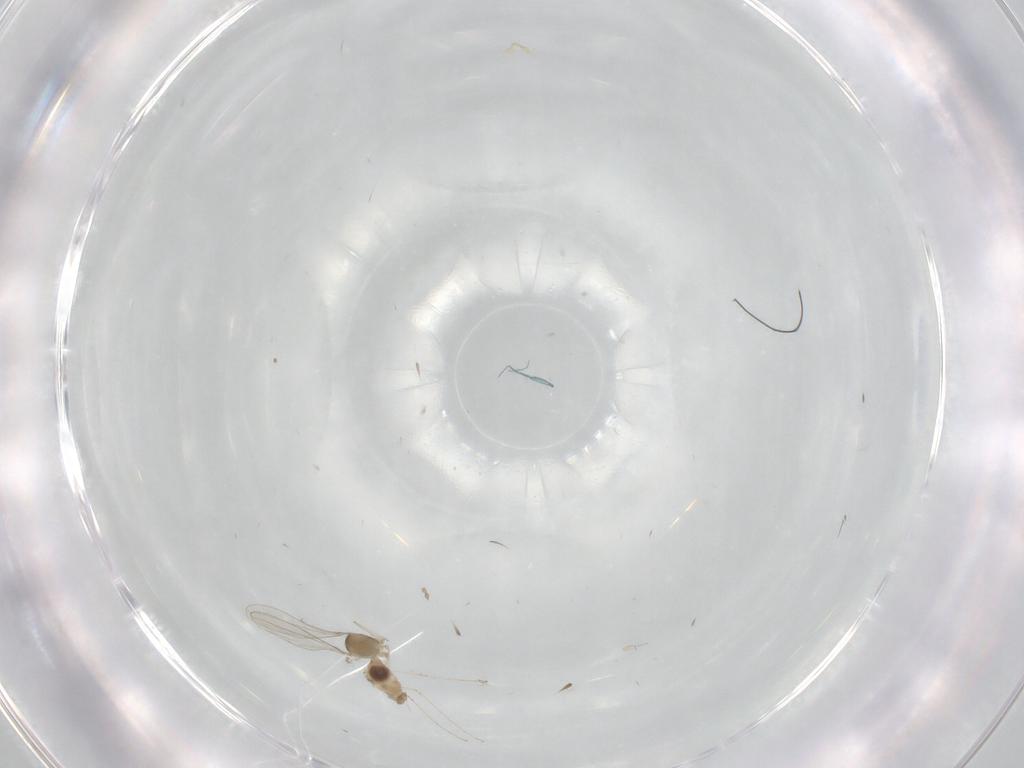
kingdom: Animalia
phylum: Arthropoda
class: Insecta
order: Diptera
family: Cecidomyiidae
